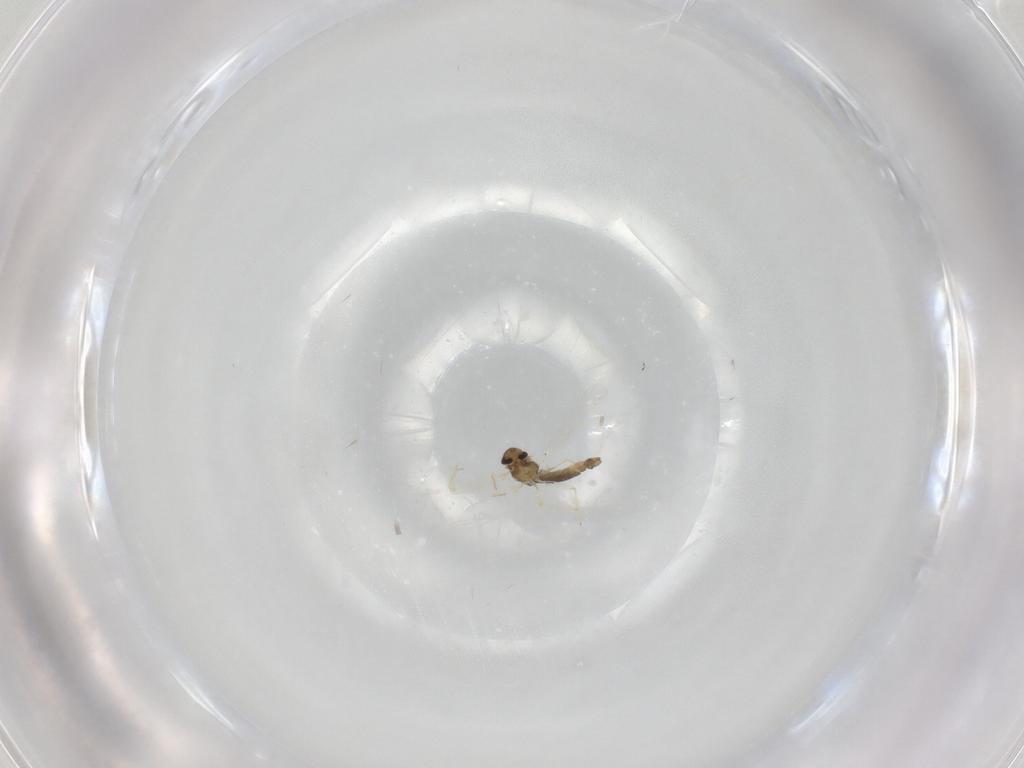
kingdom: Animalia
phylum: Arthropoda
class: Insecta
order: Diptera
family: Chironomidae
